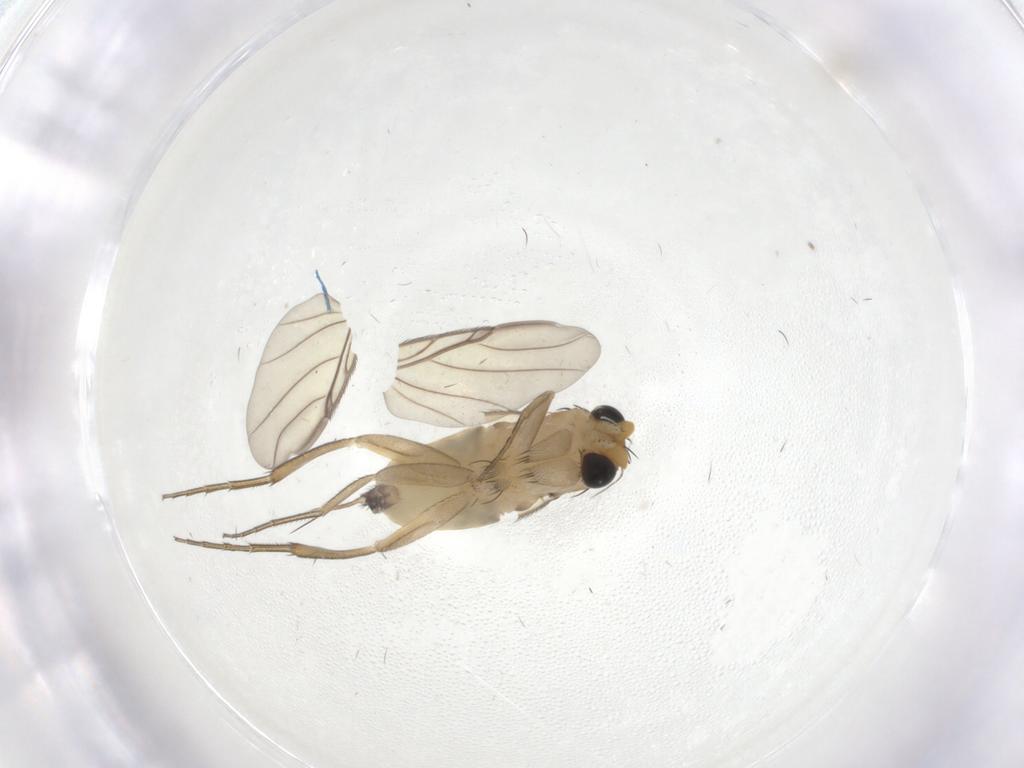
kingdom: Animalia
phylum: Arthropoda
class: Insecta
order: Diptera
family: Phoridae
